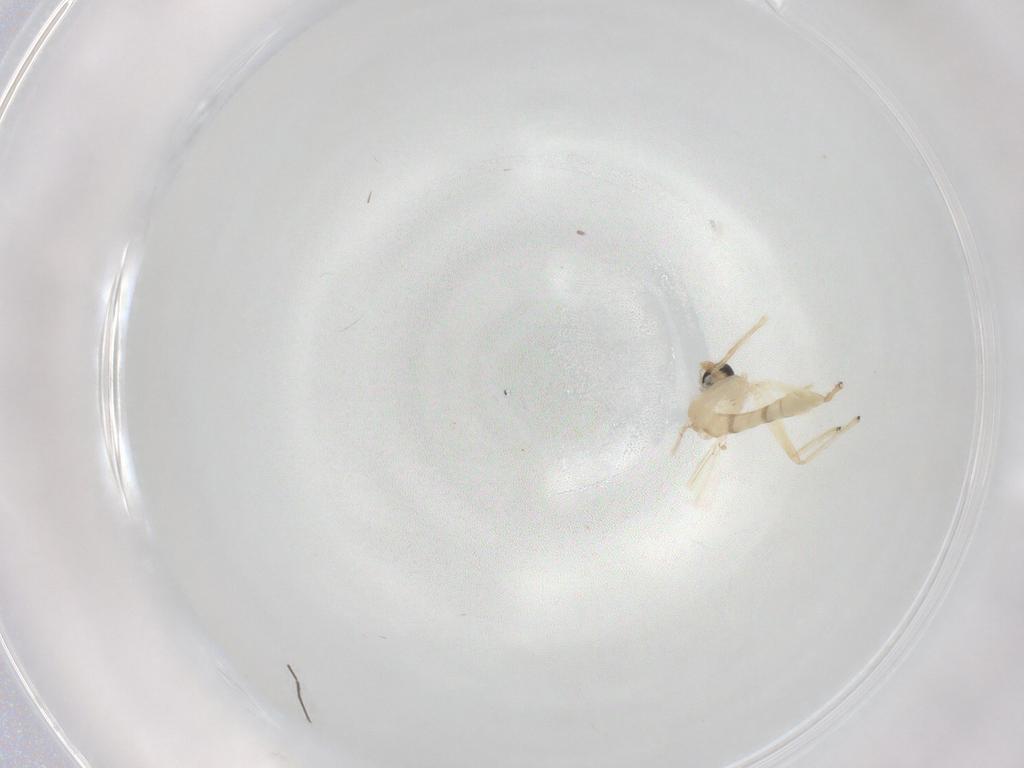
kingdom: Animalia
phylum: Arthropoda
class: Insecta
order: Diptera
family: Chironomidae
